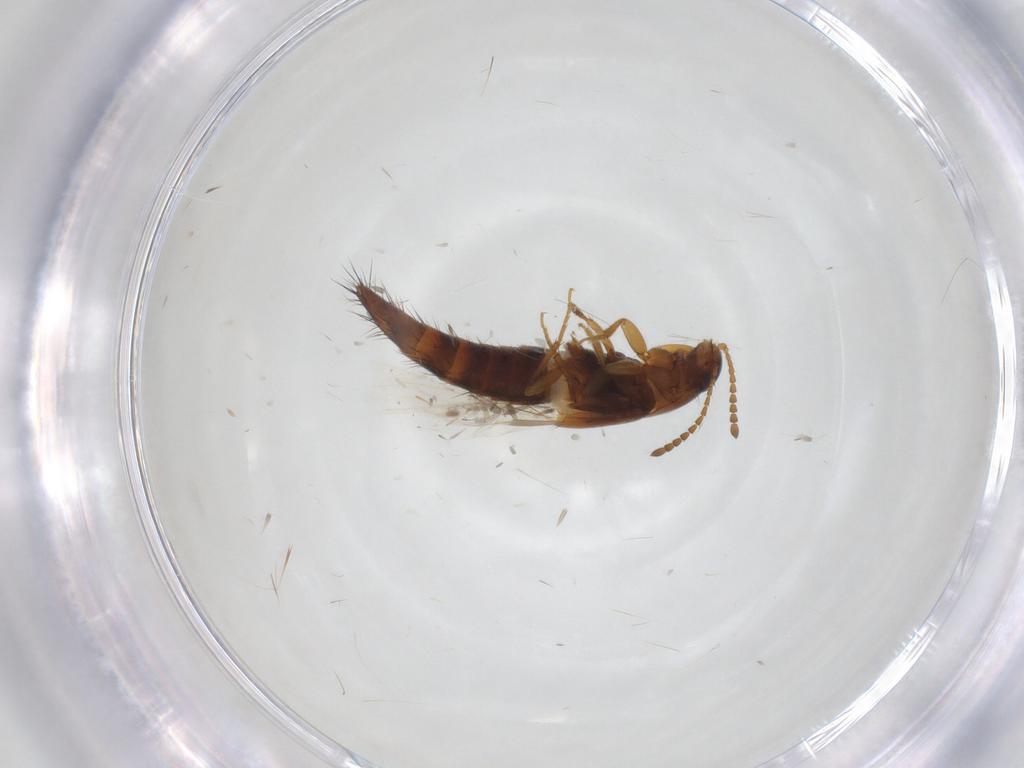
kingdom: Animalia
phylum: Arthropoda
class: Insecta
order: Coleoptera
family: Staphylinidae
